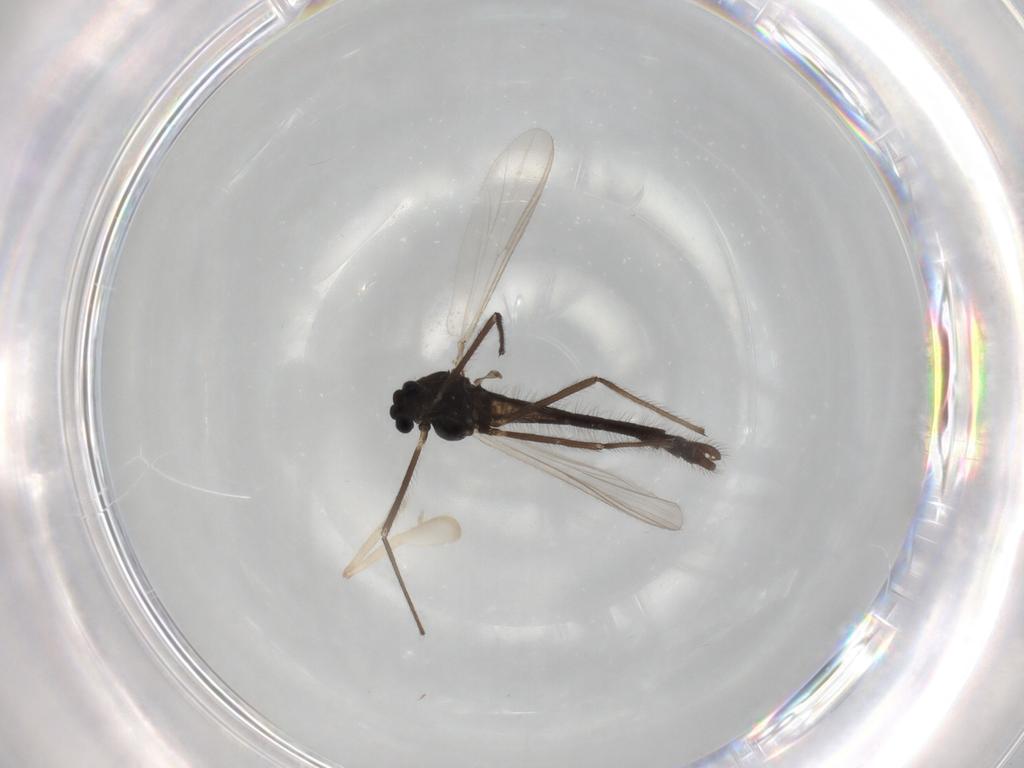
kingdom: Animalia
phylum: Arthropoda
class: Insecta
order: Diptera
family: Chironomidae
